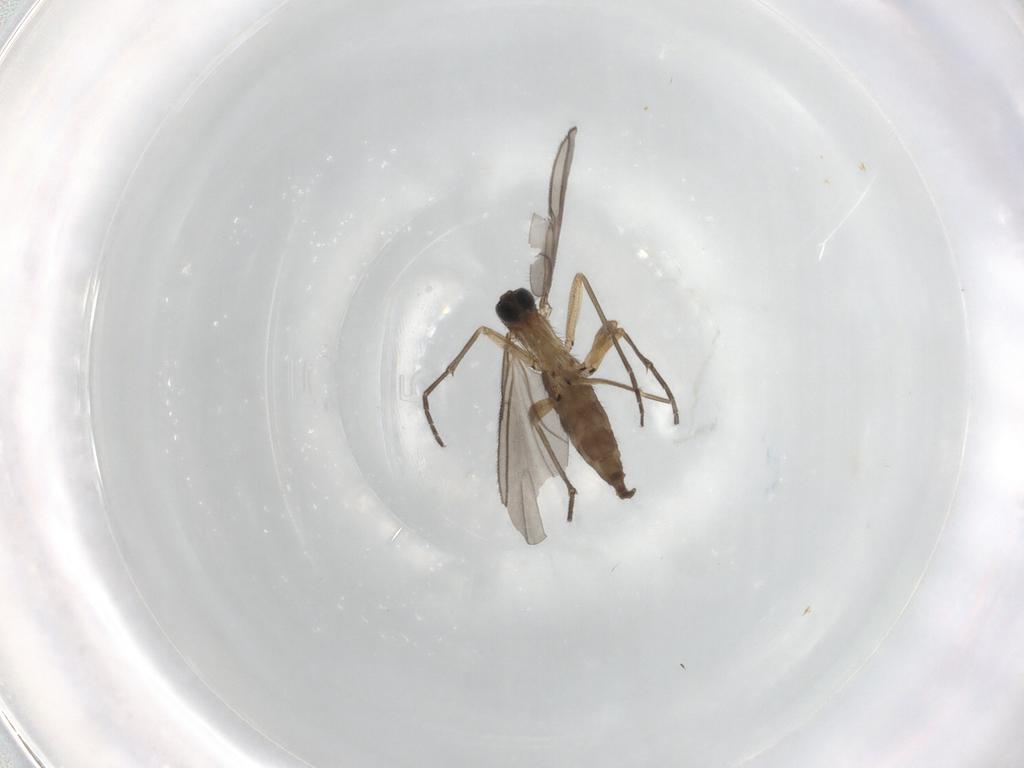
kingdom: Animalia
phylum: Arthropoda
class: Insecta
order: Diptera
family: Sciaridae
